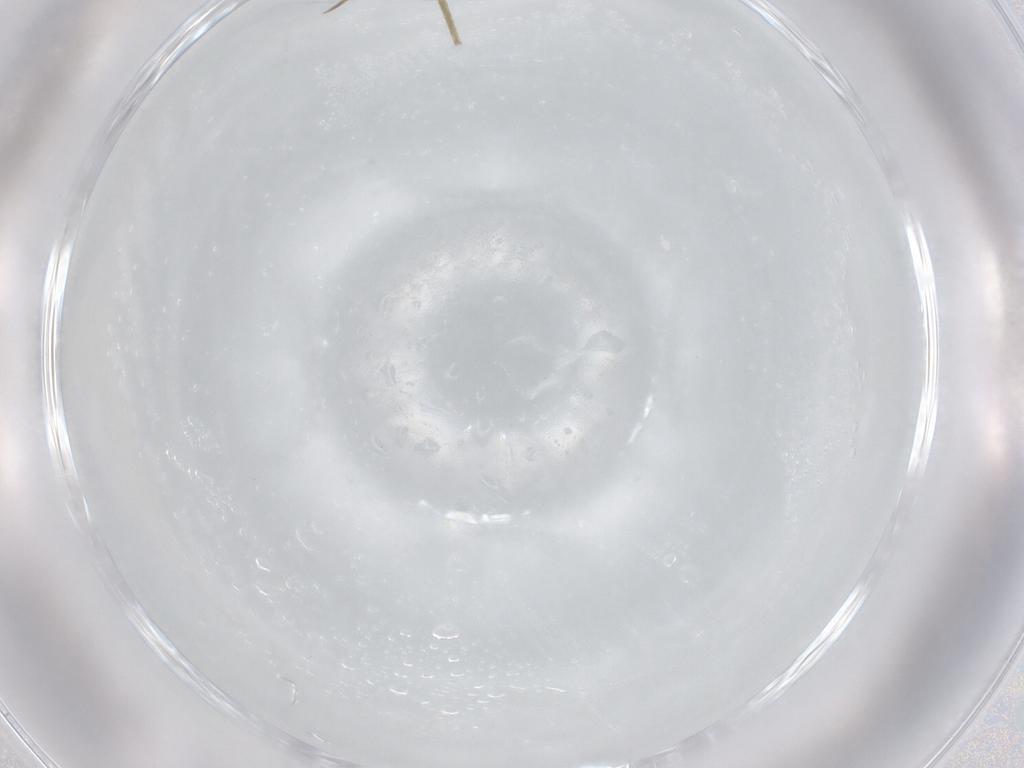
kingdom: Animalia
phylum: Arthropoda
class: Collembola
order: Entomobryomorpha
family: Entomobryidae
